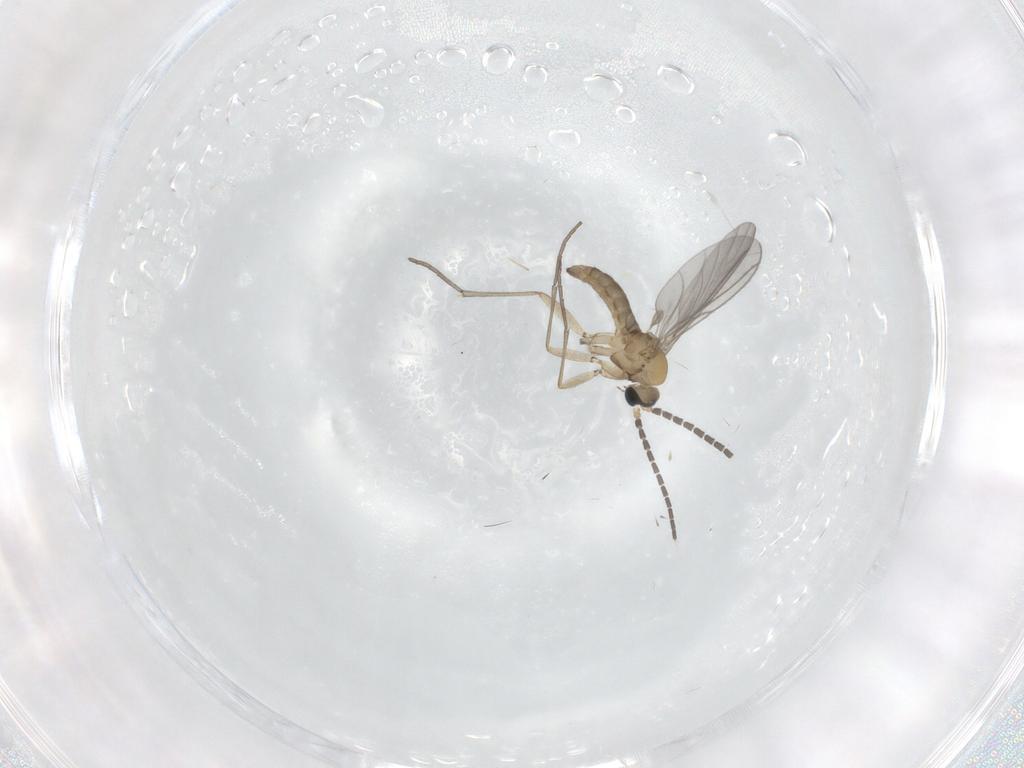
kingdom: Animalia
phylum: Arthropoda
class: Insecta
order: Diptera
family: Sciaridae
